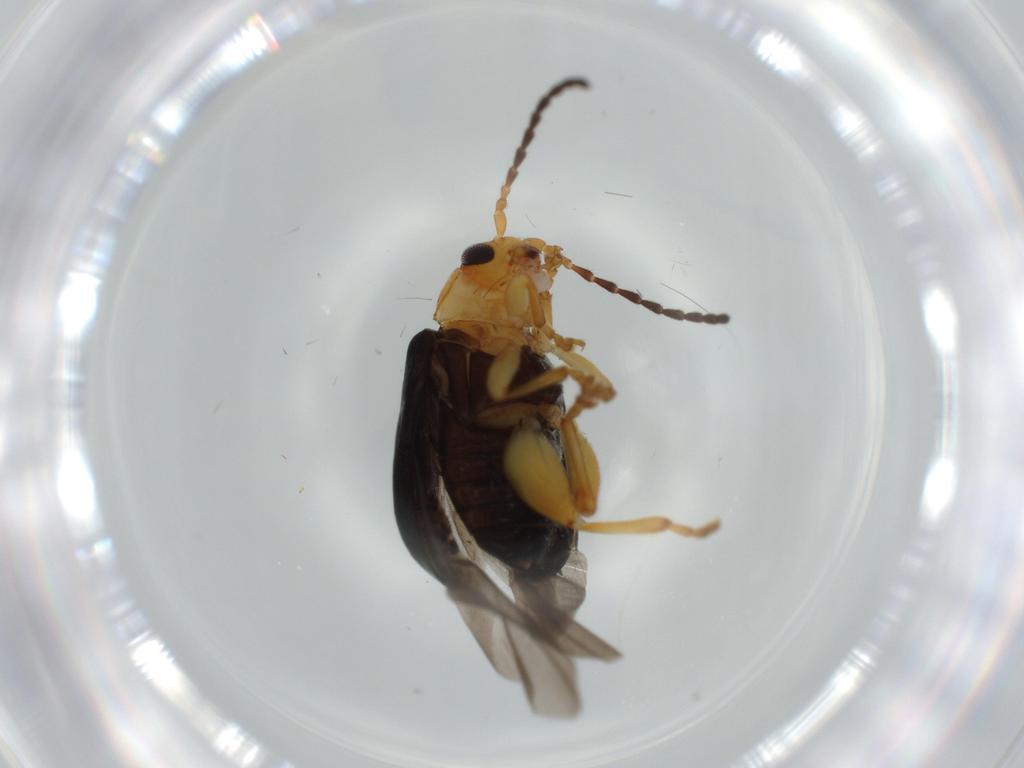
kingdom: Animalia
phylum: Arthropoda
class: Insecta
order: Coleoptera
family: Chrysomelidae
